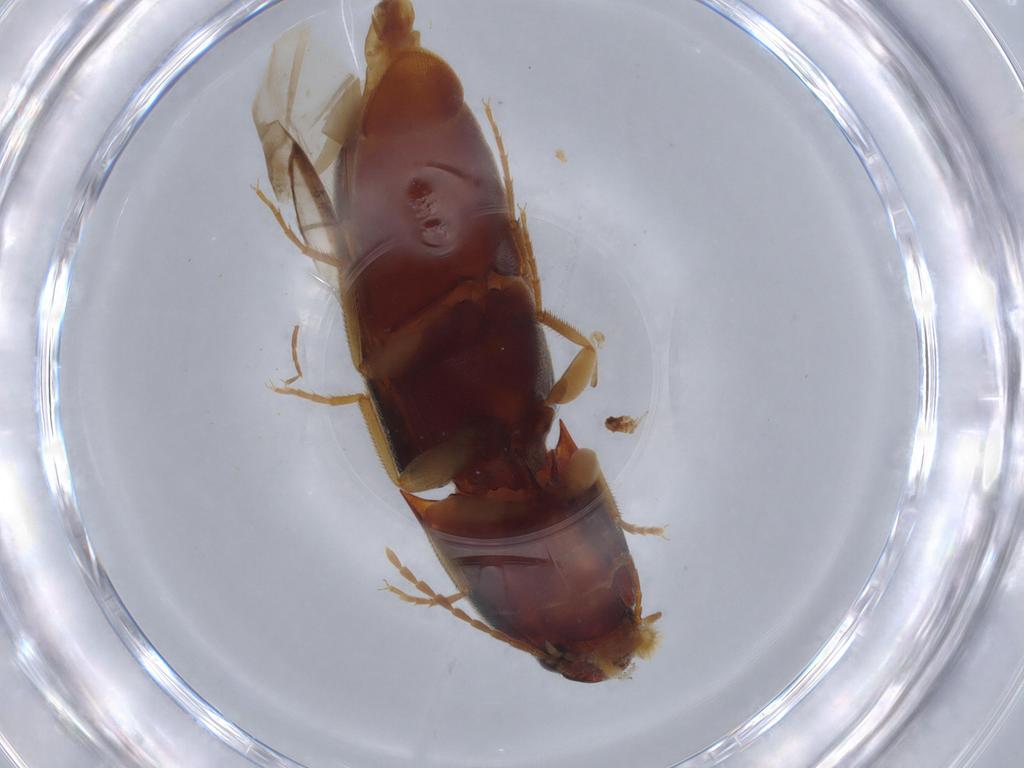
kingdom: Animalia
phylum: Arthropoda
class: Insecta
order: Coleoptera
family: Elateridae
